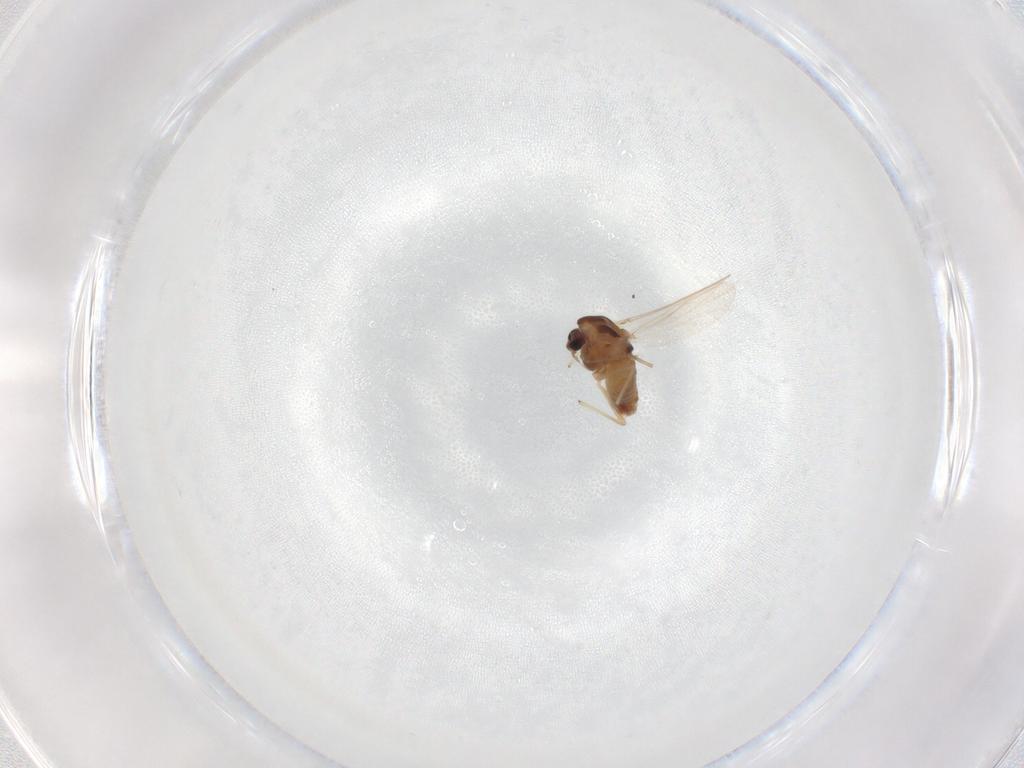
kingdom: Animalia
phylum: Arthropoda
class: Insecta
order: Diptera
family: Chironomidae
